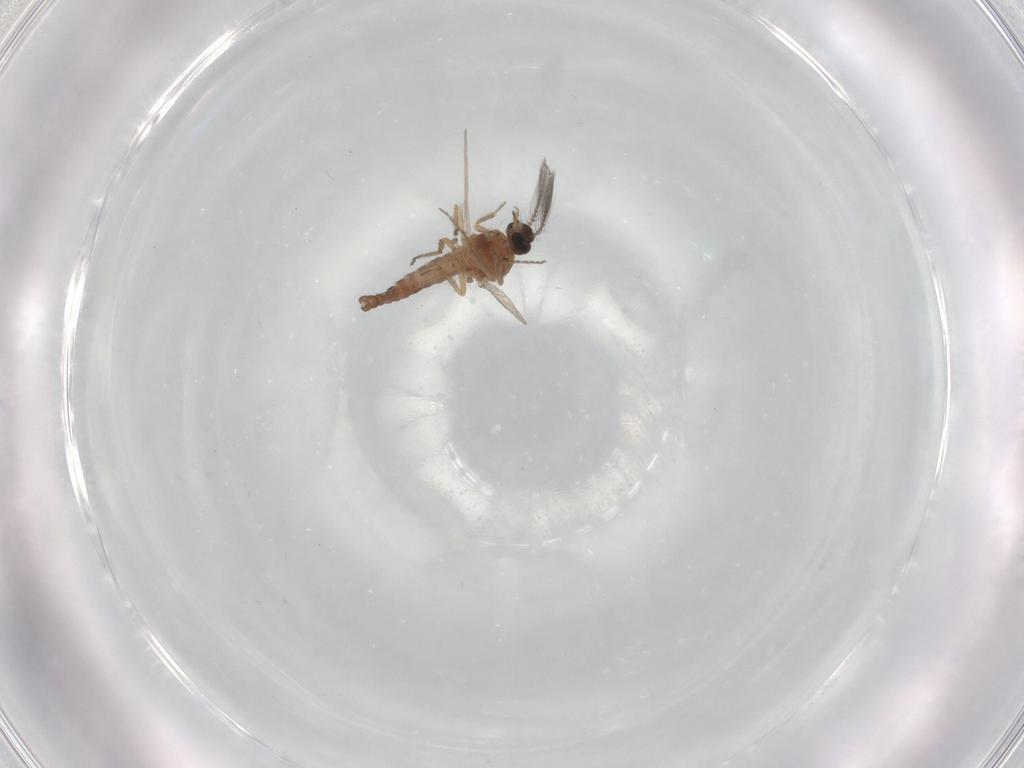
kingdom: Animalia
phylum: Arthropoda
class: Insecta
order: Diptera
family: Ceratopogonidae
